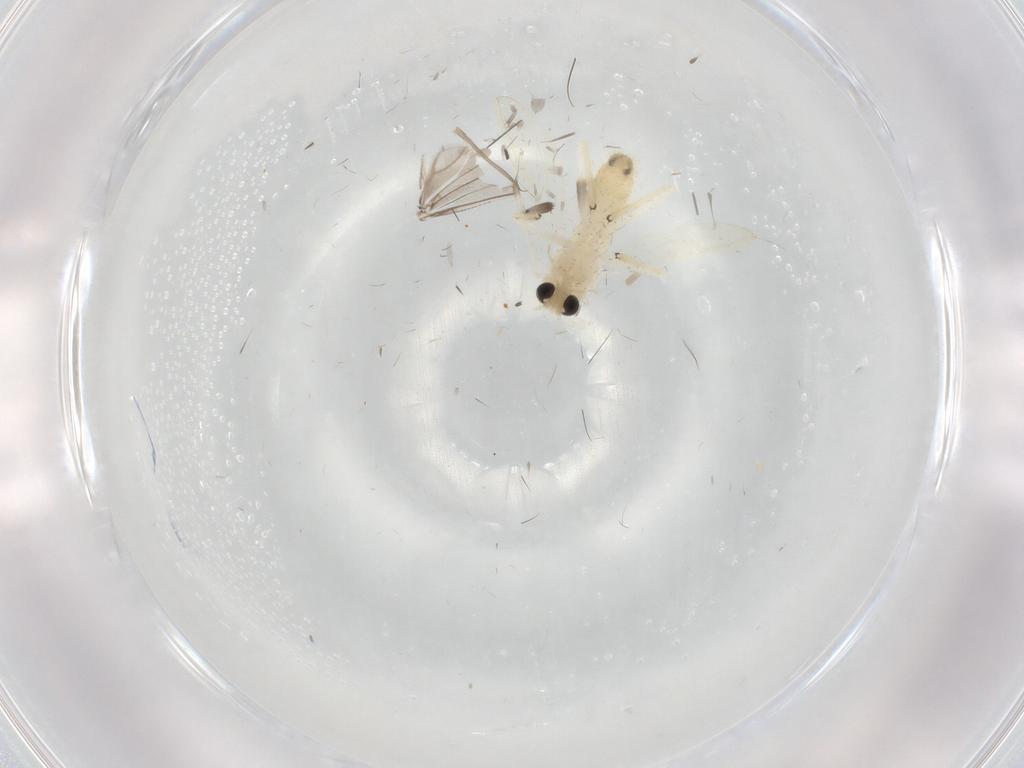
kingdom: Animalia
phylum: Arthropoda
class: Insecta
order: Diptera
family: Chironomidae
